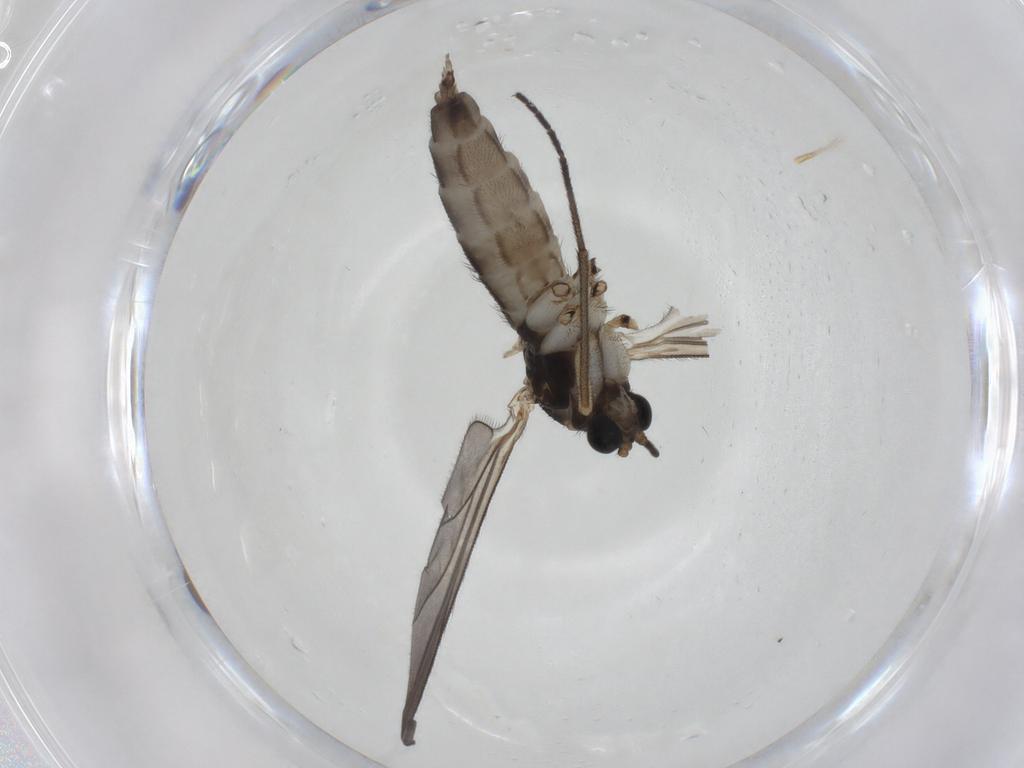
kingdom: Animalia
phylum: Arthropoda
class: Insecta
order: Diptera
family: Sciaridae
